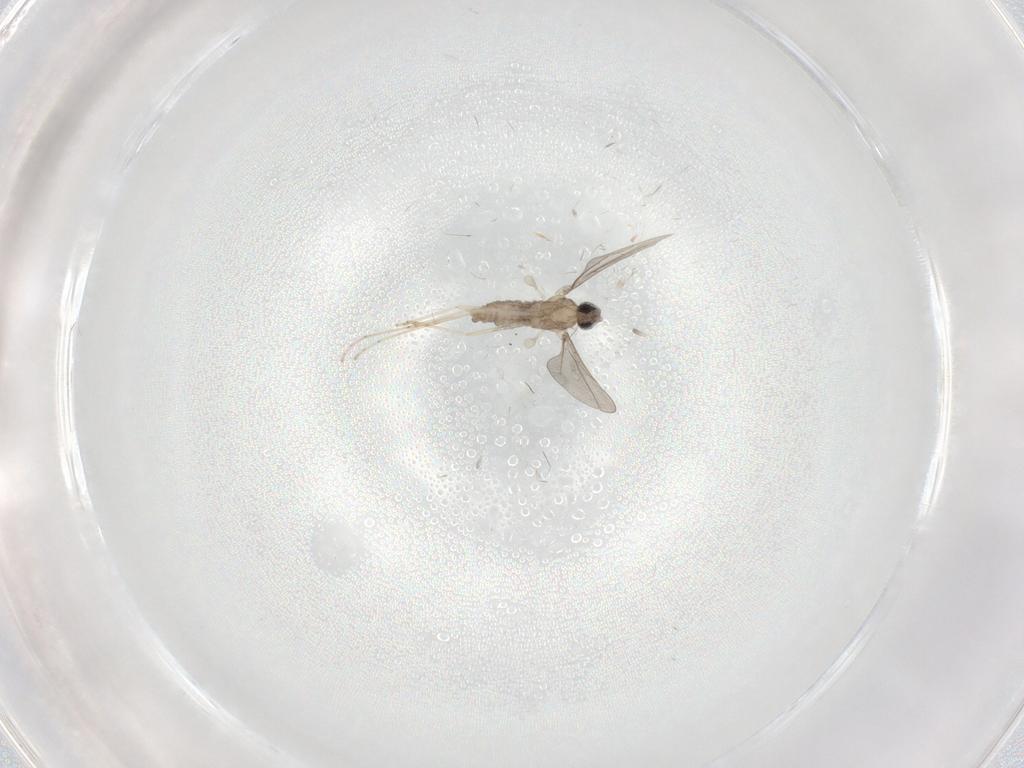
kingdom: Animalia
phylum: Arthropoda
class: Insecta
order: Diptera
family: Cecidomyiidae
